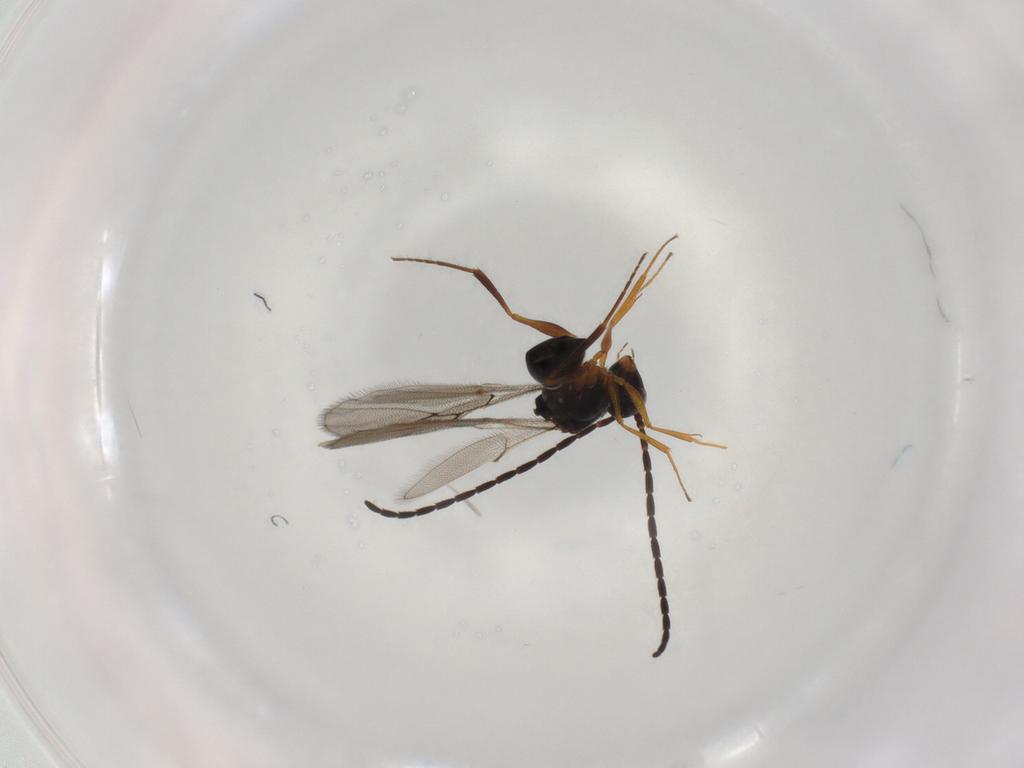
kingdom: Animalia
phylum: Arthropoda
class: Insecta
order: Hymenoptera
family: Figitidae
